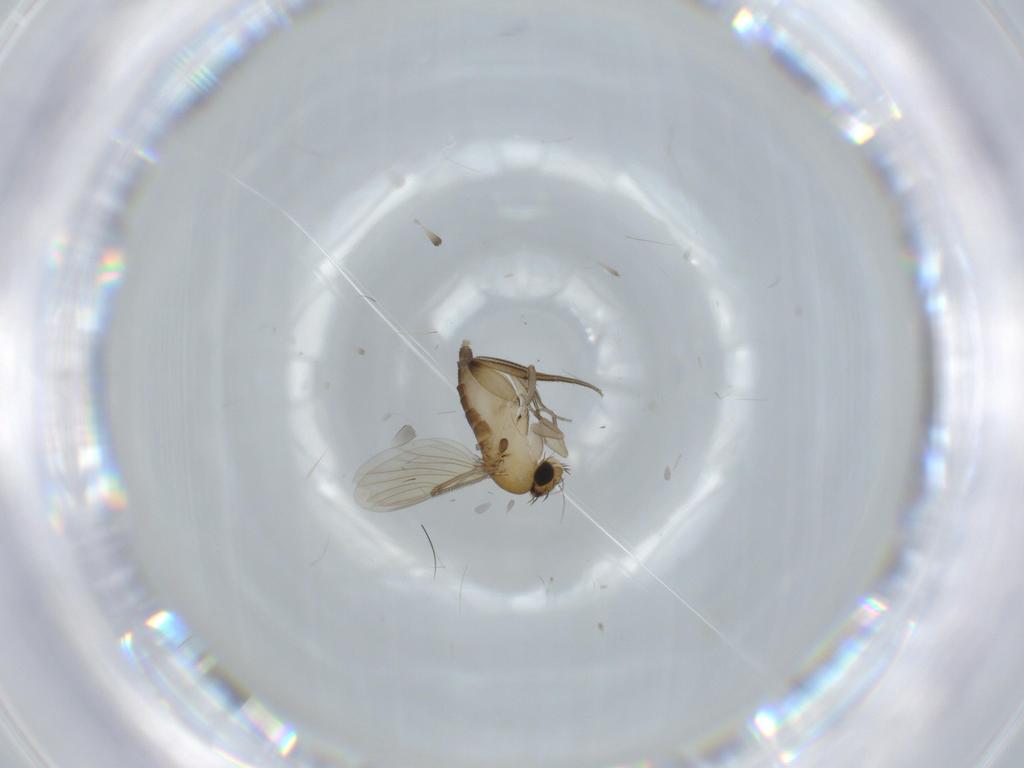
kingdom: Animalia
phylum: Arthropoda
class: Insecta
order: Diptera
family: Phoridae
